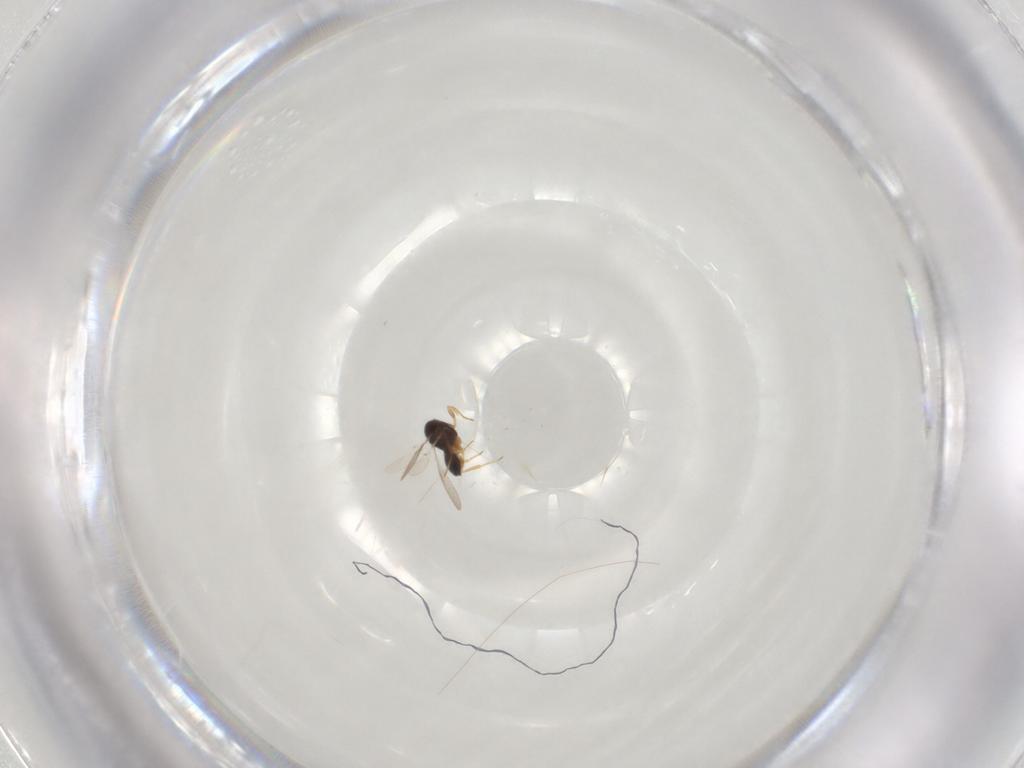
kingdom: Animalia
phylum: Arthropoda
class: Insecta
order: Hymenoptera
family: Scelionidae
